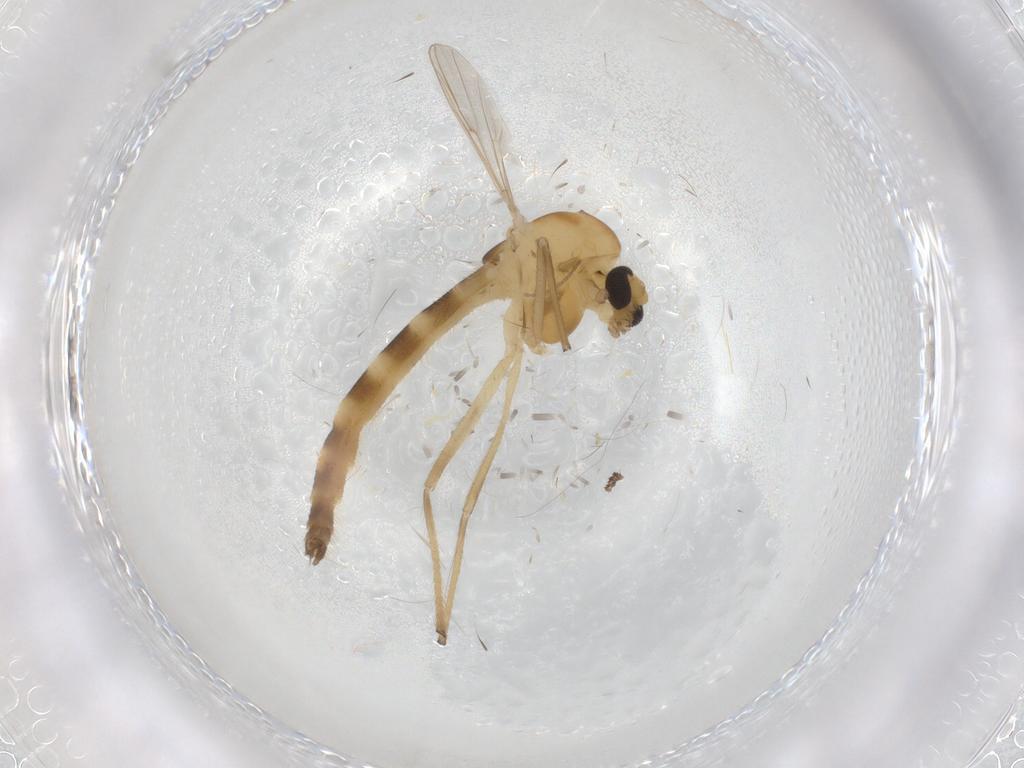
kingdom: Animalia
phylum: Arthropoda
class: Insecta
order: Diptera
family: Chironomidae
